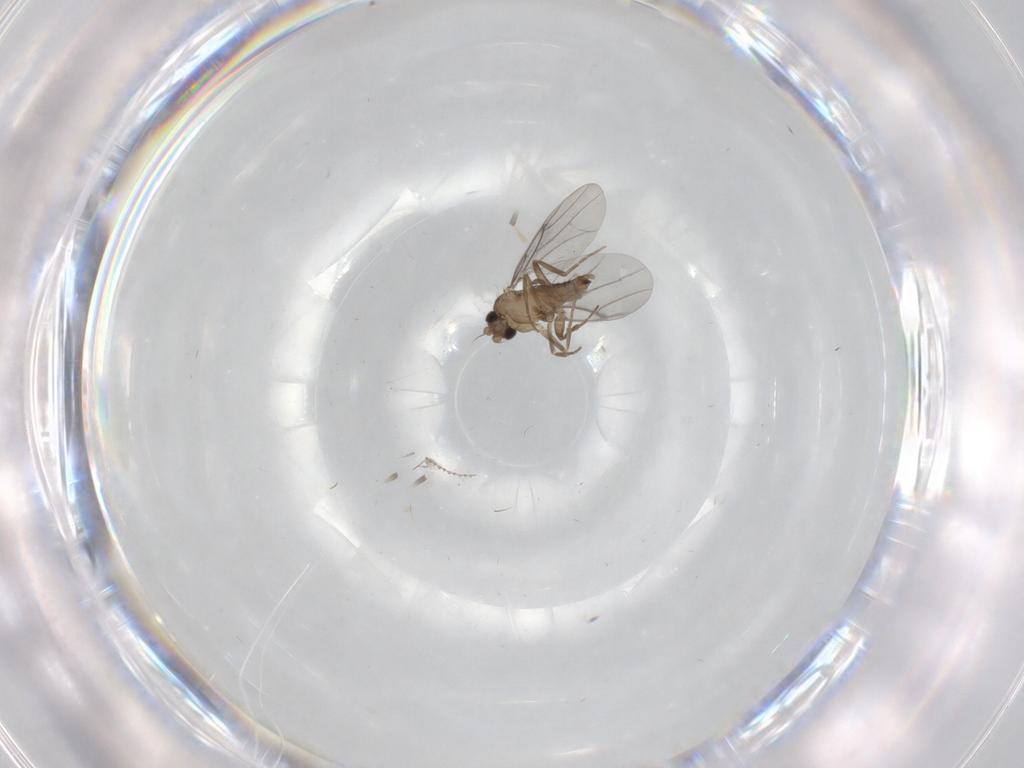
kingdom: Animalia
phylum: Arthropoda
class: Insecta
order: Diptera
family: Cecidomyiidae
